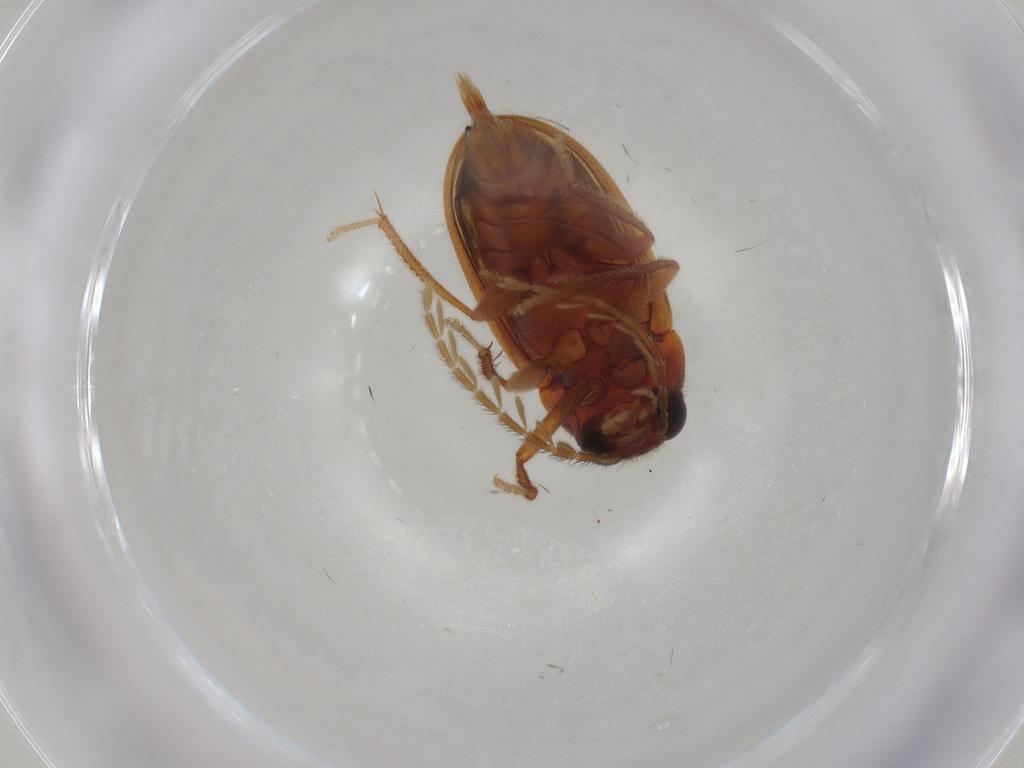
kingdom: Animalia
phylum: Arthropoda
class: Insecta
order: Coleoptera
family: Ptilodactylidae
